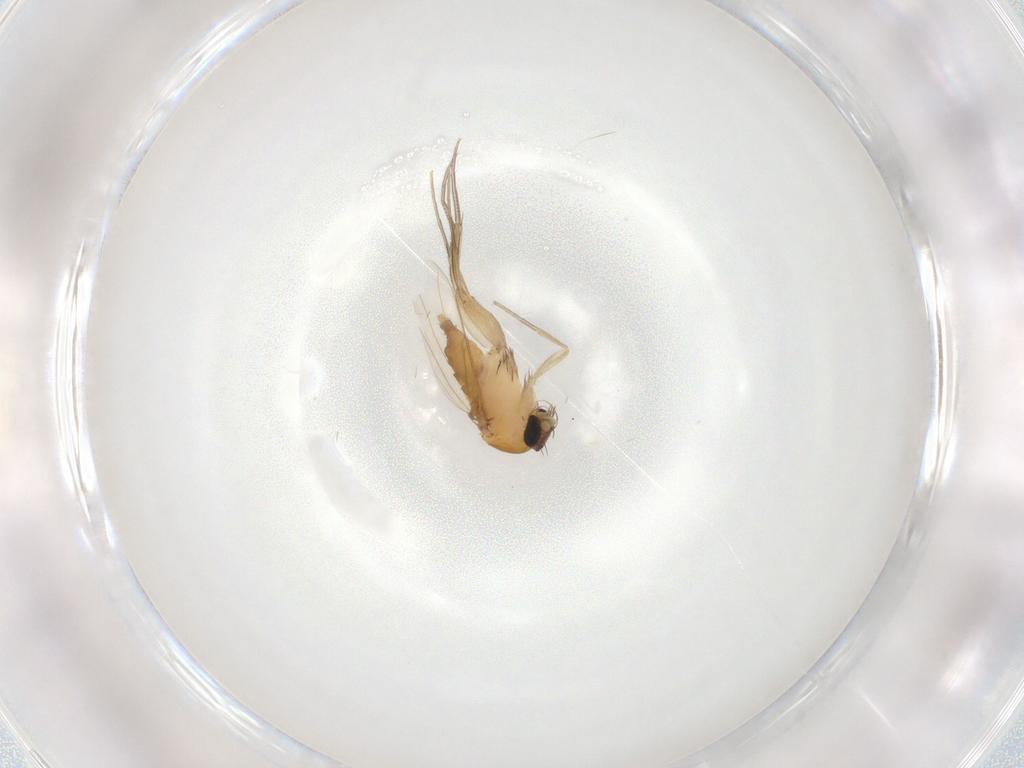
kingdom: Animalia
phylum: Arthropoda
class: Insecta
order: Diptera
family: Phoridae
